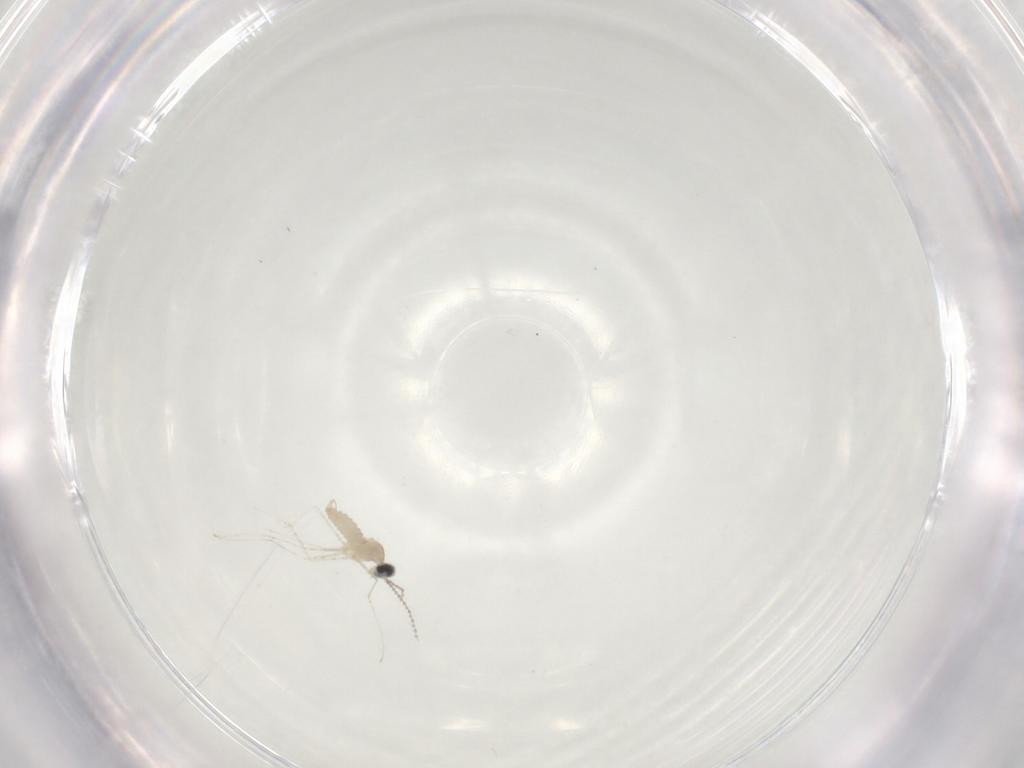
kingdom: Animalia
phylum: Arthropoda
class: Insecta
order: Diptera
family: Cecidomyiidae
